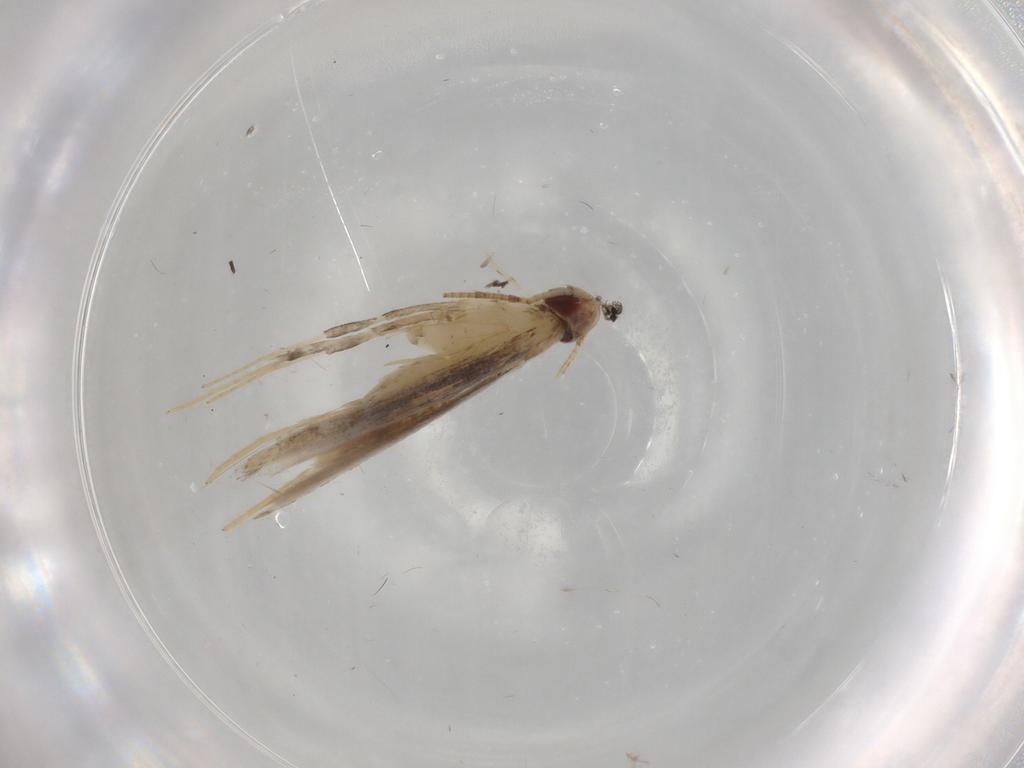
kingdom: Animalia
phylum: Arthropoda
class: Insecta
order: Lepidoptera
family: Gracillariidae
